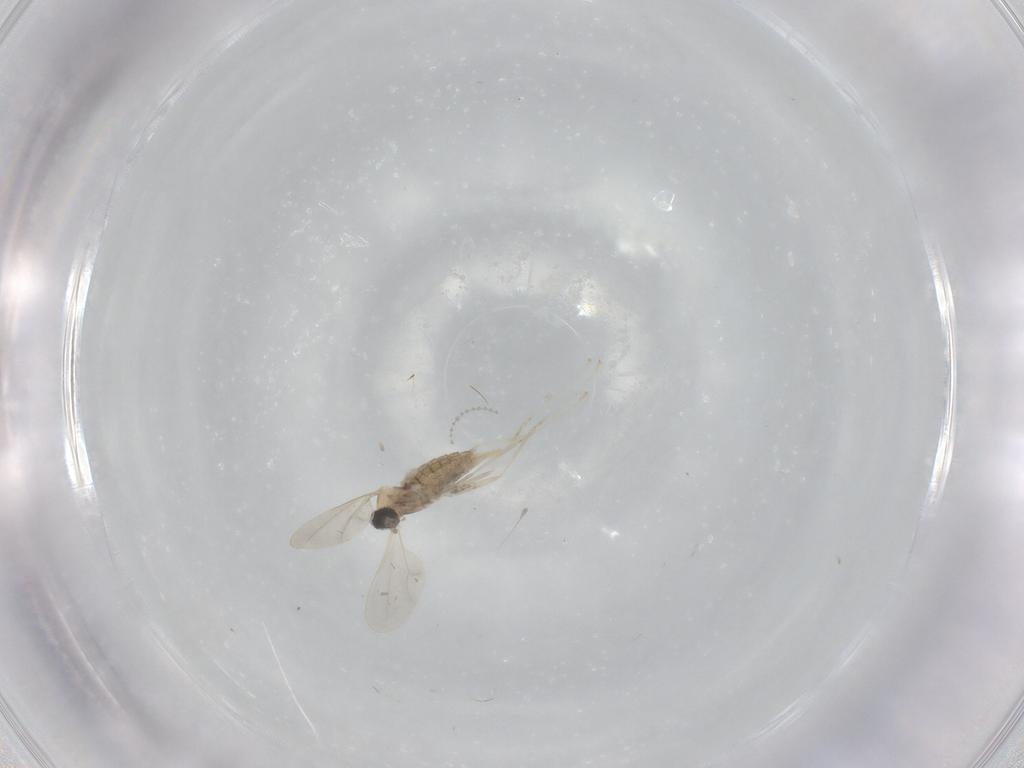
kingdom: Animalia
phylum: Arthropoda
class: Insecta
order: Diptera
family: Cecidomyiidae
